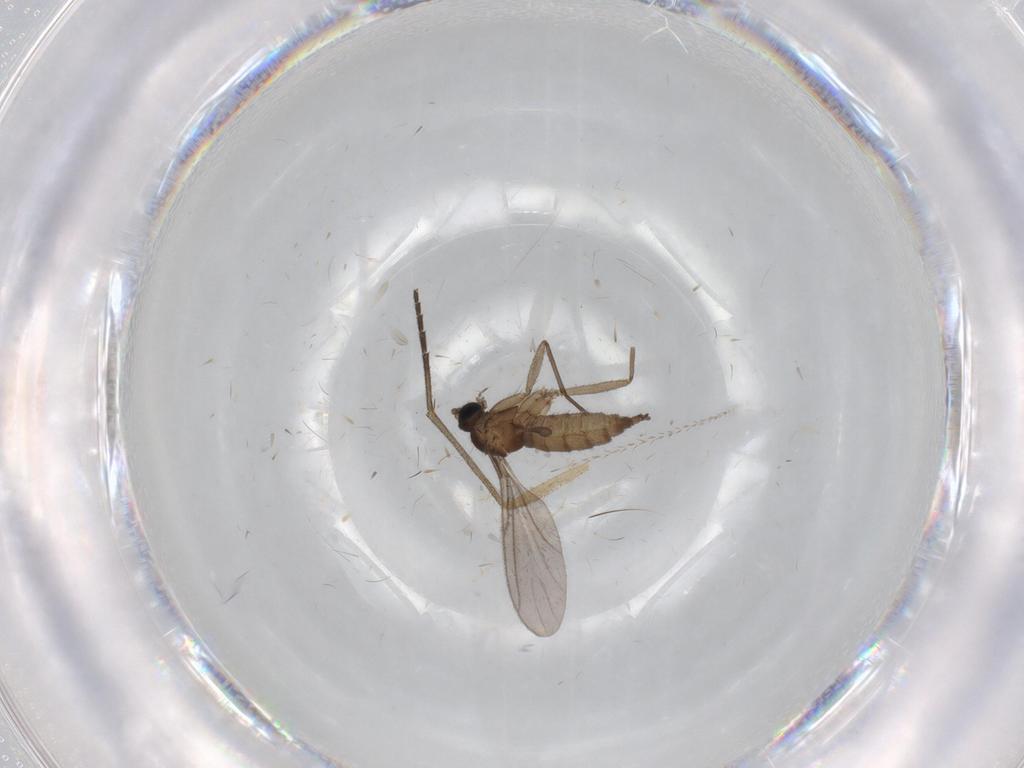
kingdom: Animalia
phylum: Arthropoda
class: Insecta
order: Diptera
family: Sciaridae
